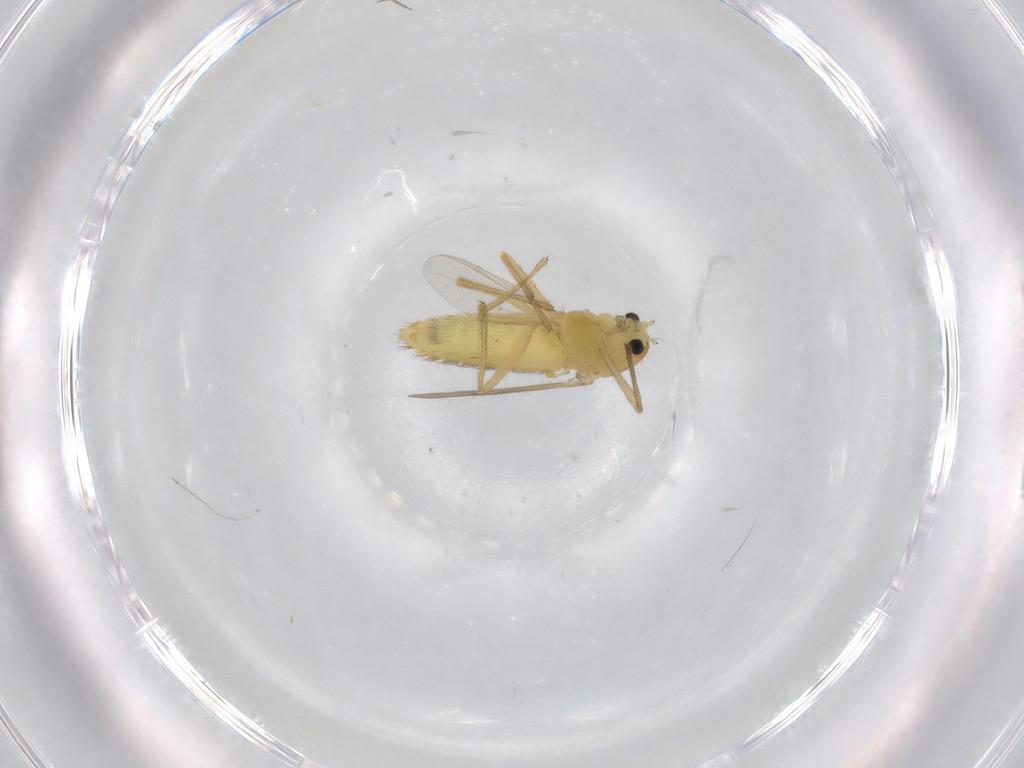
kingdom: Animalia
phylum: Arthropoda
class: Insecta
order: Diptera
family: Chironomidae
